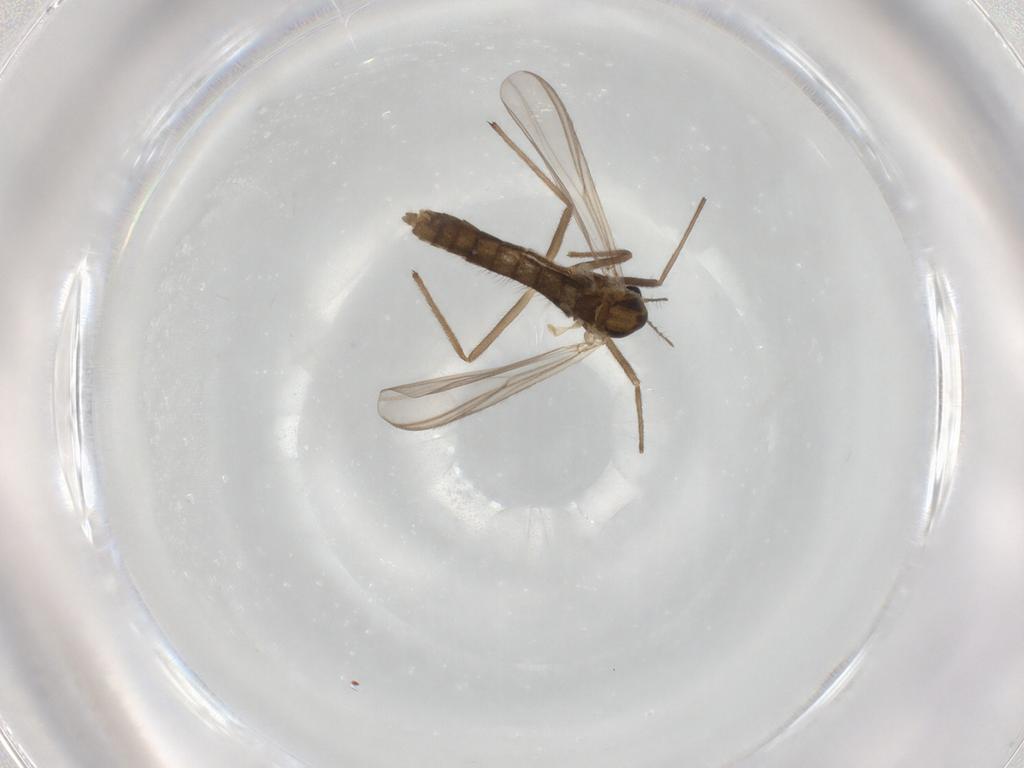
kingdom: Animalia
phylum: Arthropoda
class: Insecta
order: Diptera
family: Chironomidae
